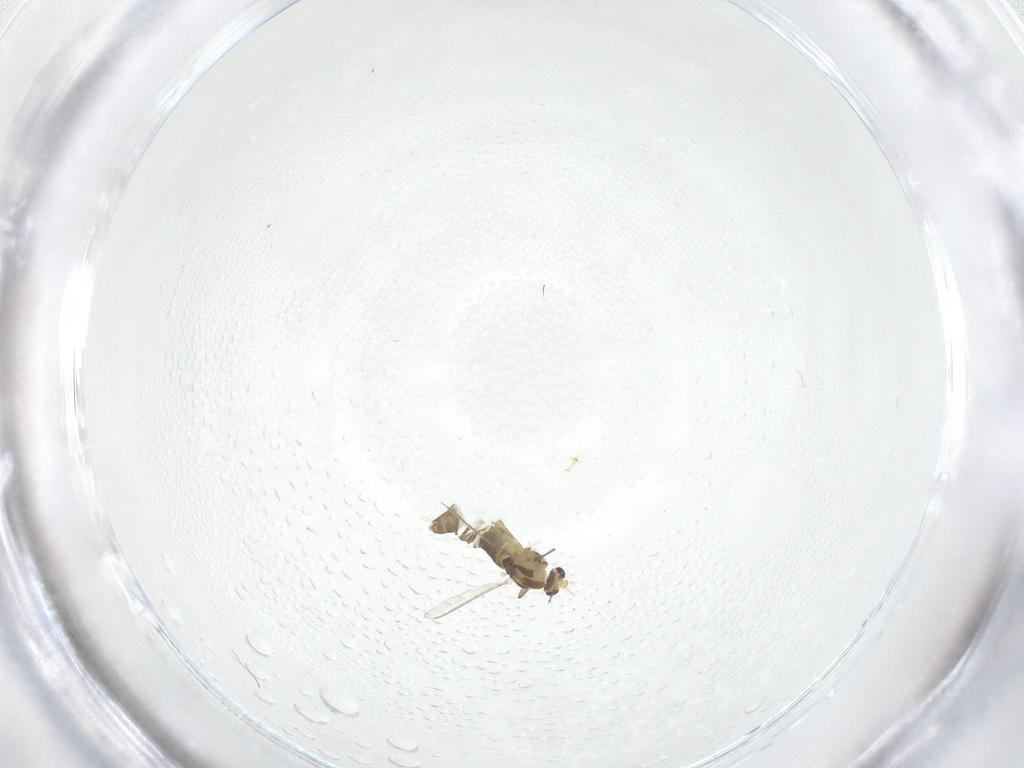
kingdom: Animalia
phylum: Arthropoda
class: Insecta
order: Diptera
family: Chironomidae
